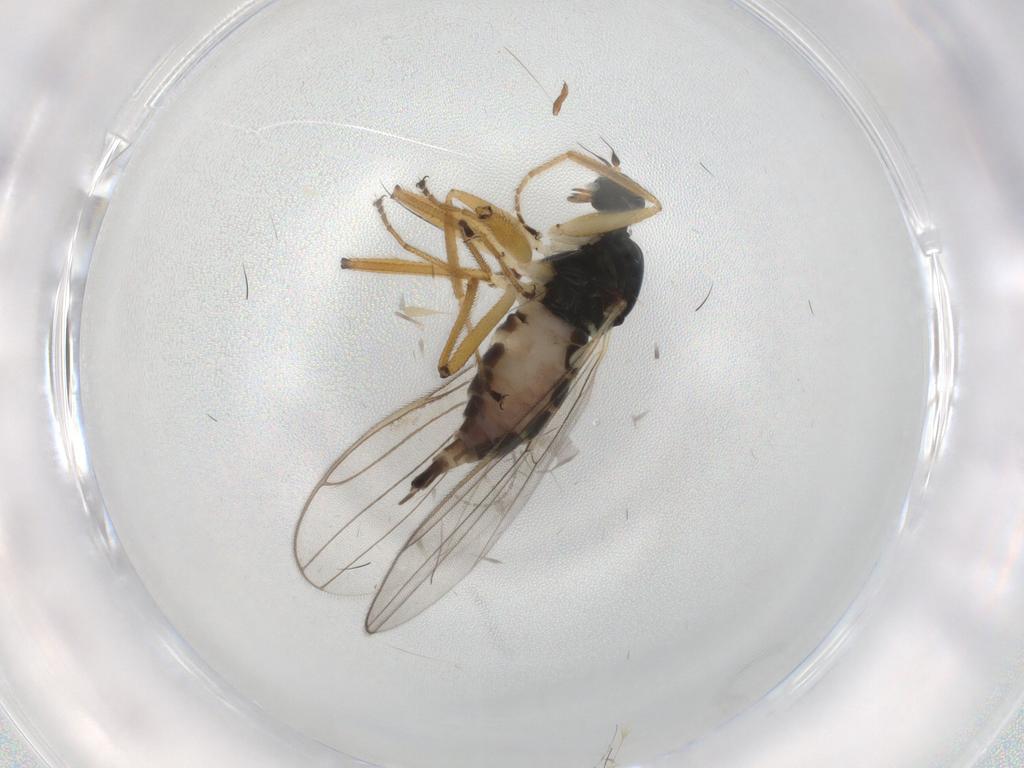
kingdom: Animalia
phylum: Arthropoda
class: Insecta
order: Diptera
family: Hybotidae
